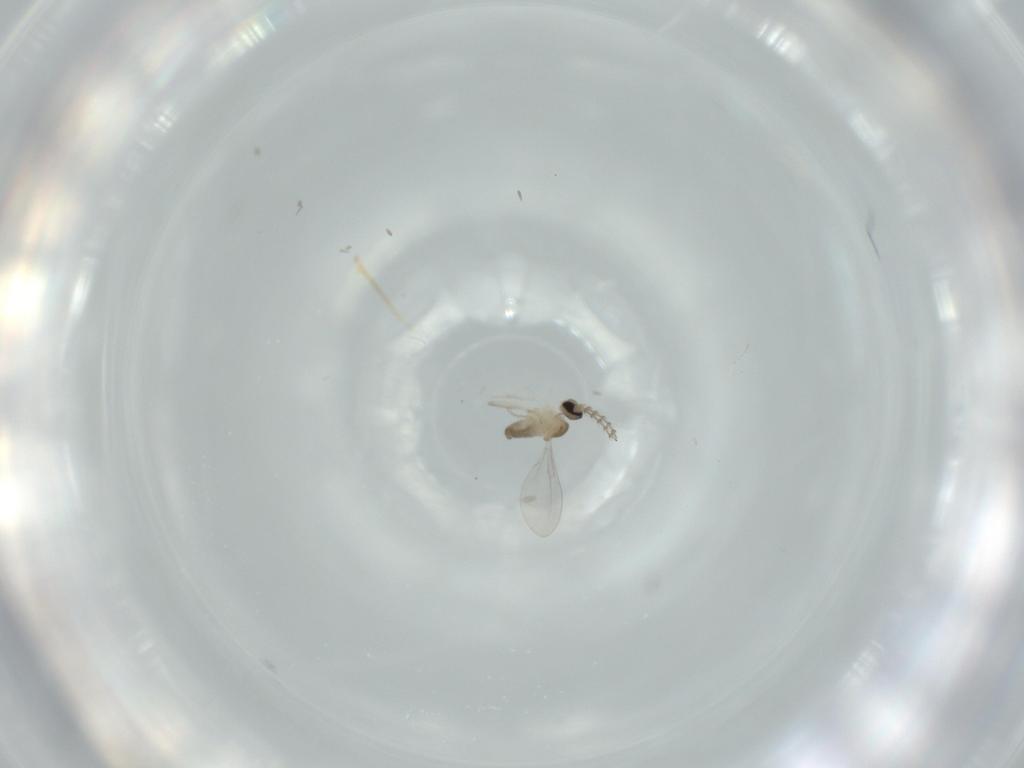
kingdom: Animalia
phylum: Arthropoda
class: Insecta
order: Diptera
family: Cecidomyiidae
